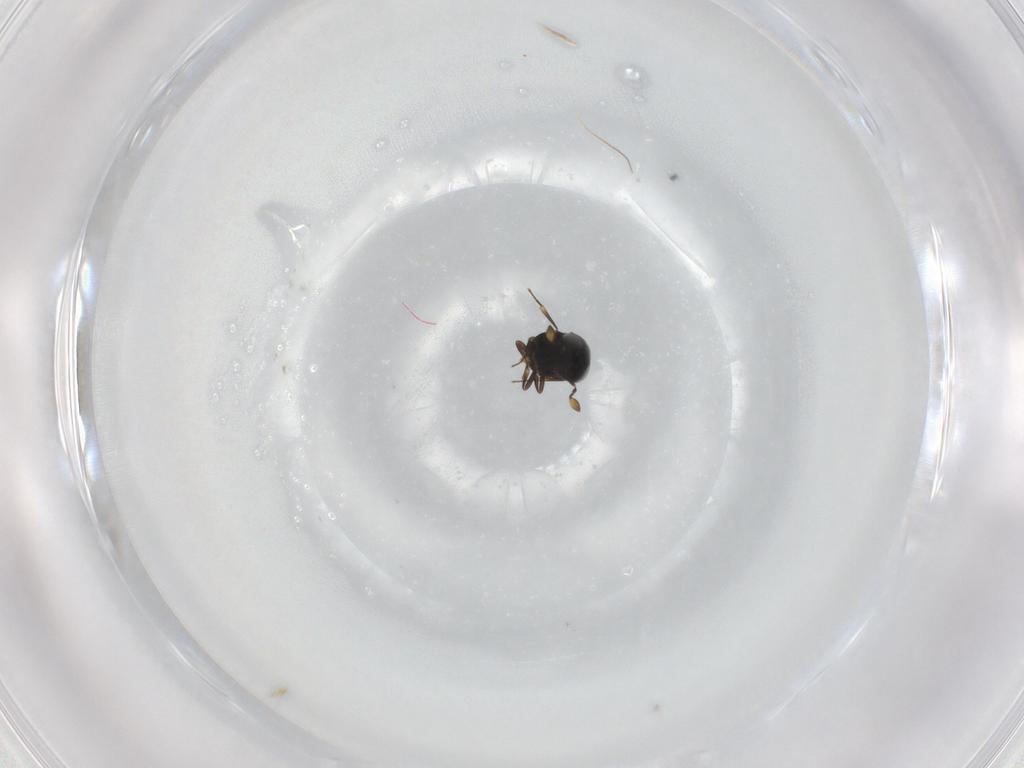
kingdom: Animalia
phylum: Arthropoda
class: Insecta
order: Hymenoptera
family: Scelionidae
